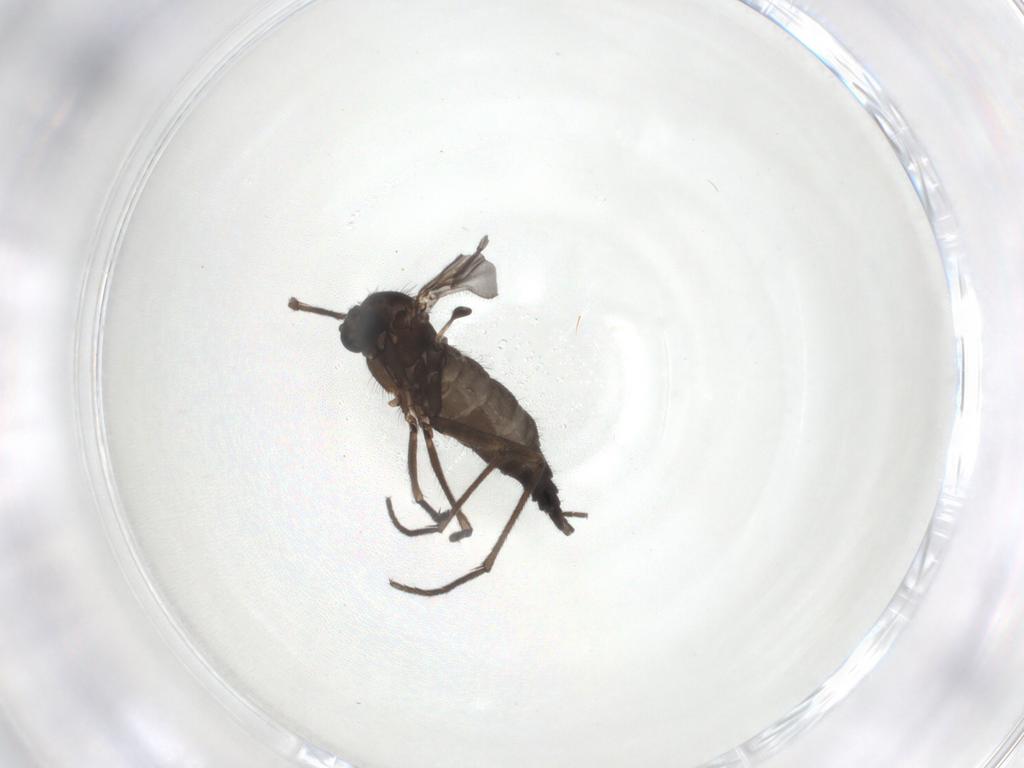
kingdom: Animalia
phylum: Arthropoda
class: Insecta
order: Diptera
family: Sciaridae
